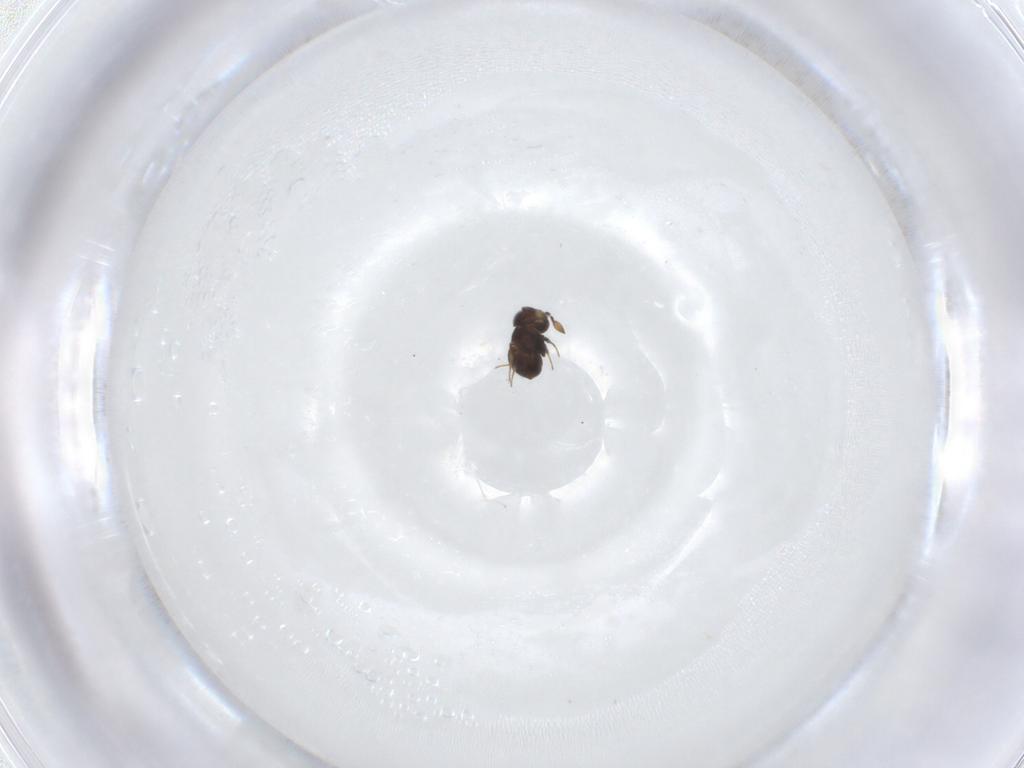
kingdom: Animalia
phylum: Arthropoda
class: Insecta
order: Hymenoptera
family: Scelionidae
